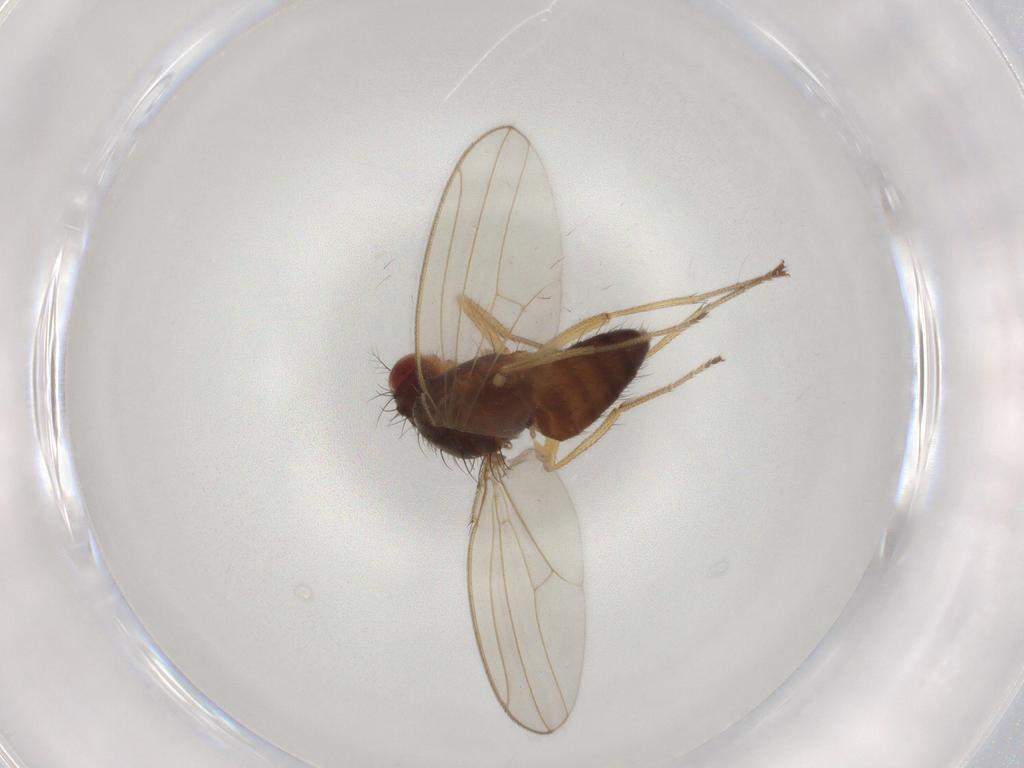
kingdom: Animalia
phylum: Arthropoda
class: Insecta
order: Diptera
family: Drosophilidae
